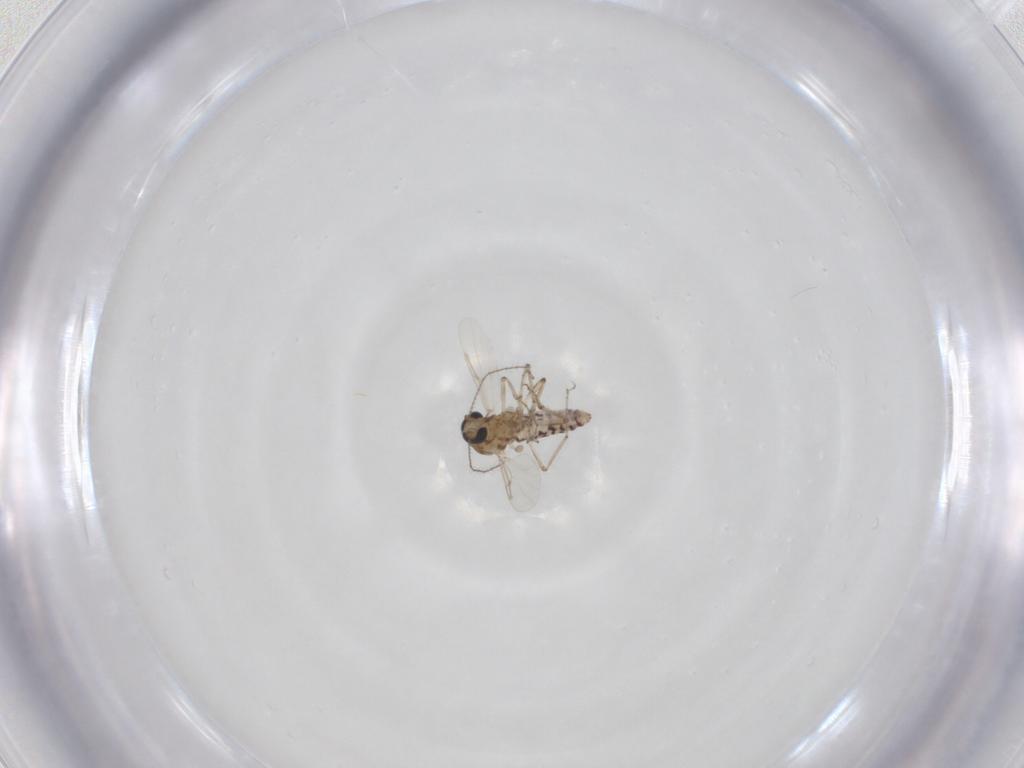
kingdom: Animalia
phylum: Arthropoda
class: Insecta
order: Diptera
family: Ceratopogonidae
